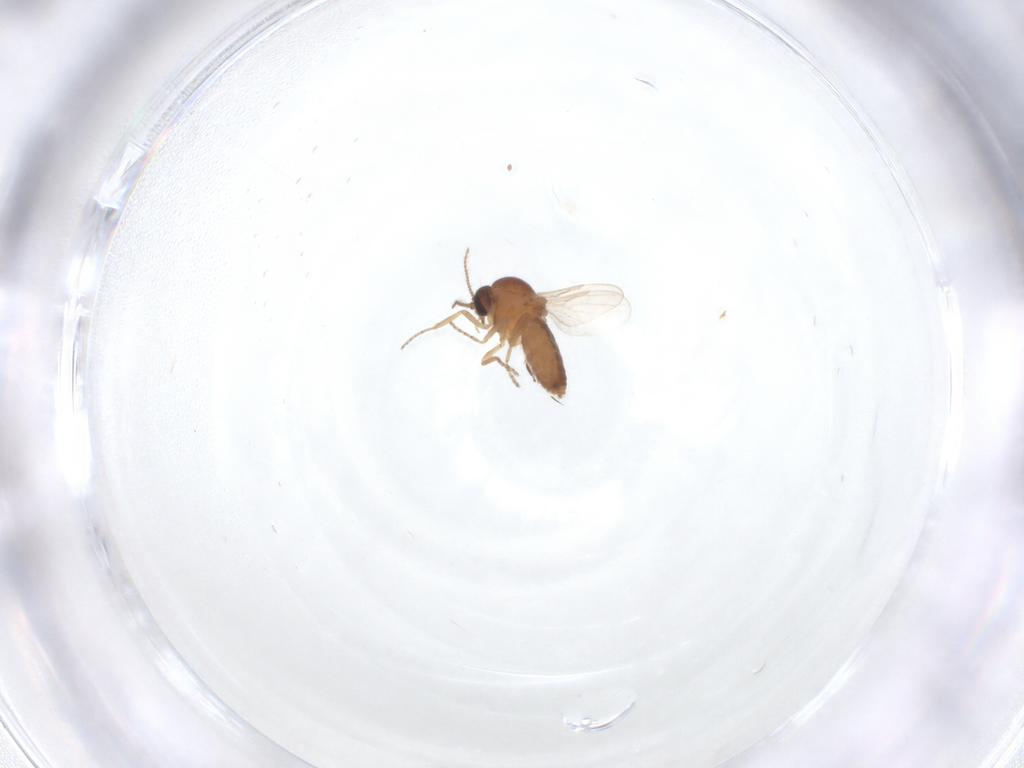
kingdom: Animalia
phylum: Arthropoda
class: Insecta
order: Diptera
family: Ceratopogonidae
